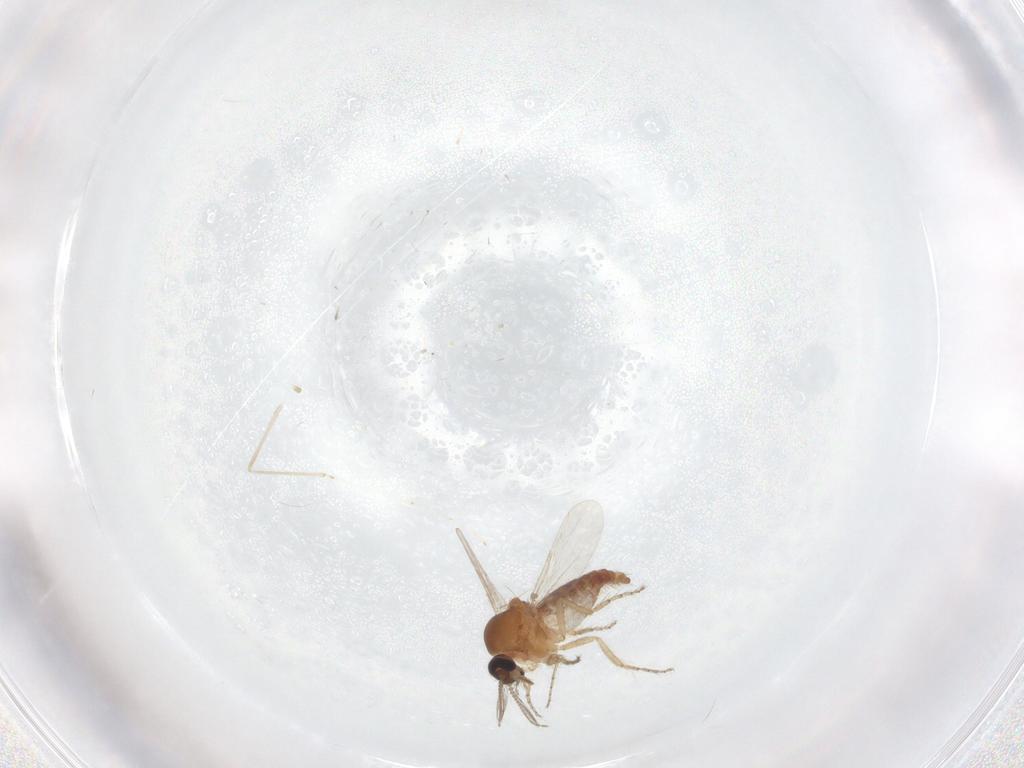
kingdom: Animalia
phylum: Arthropoda
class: Insecta
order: Diptera
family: Ceratopogonidae
